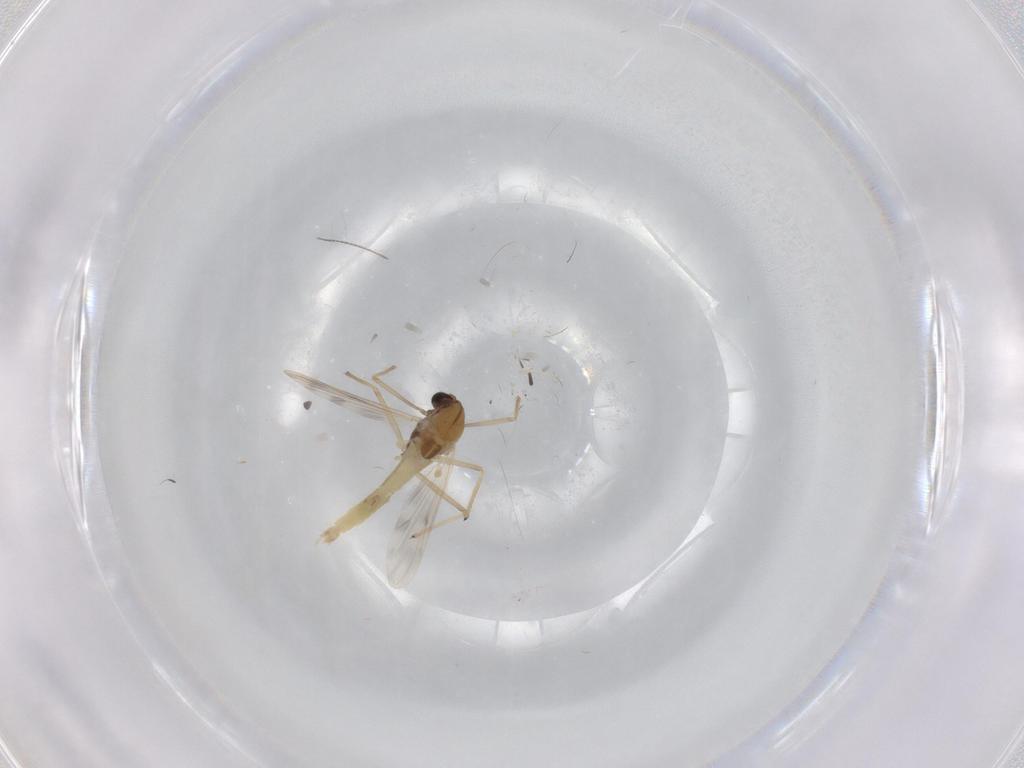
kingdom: Animalia
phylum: Arthropoda
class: Insecta
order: Diptera
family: Chironomidae
